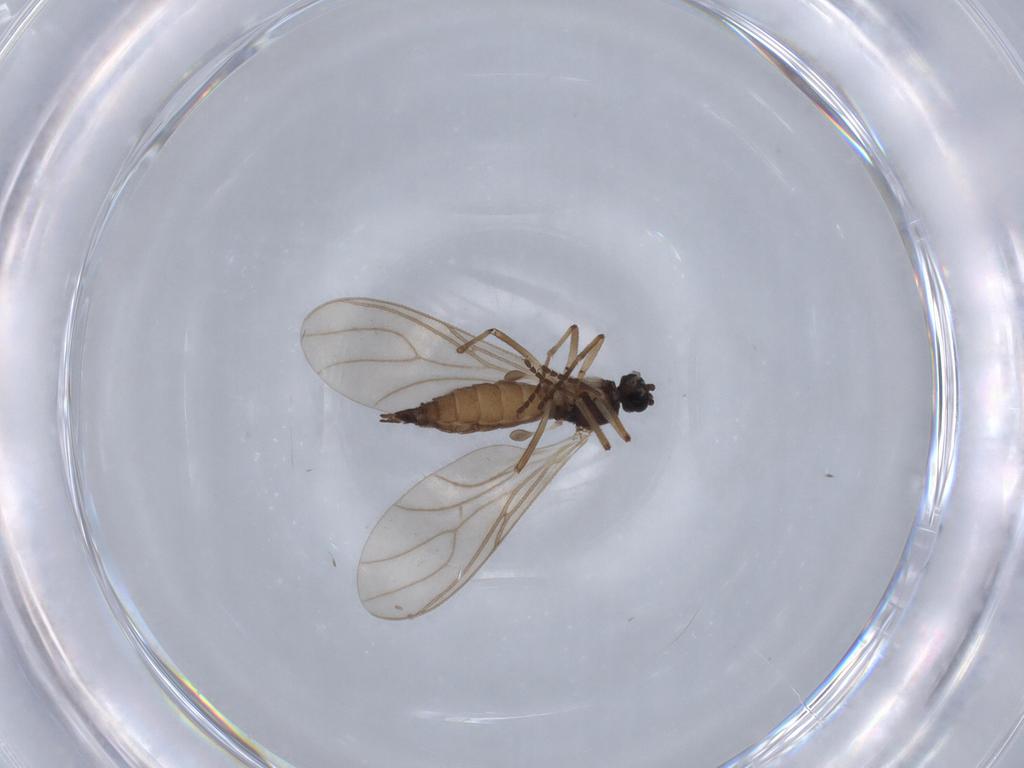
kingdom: Animalia
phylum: Arthropoda
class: Insecta
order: Diptera
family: Sciaridae
